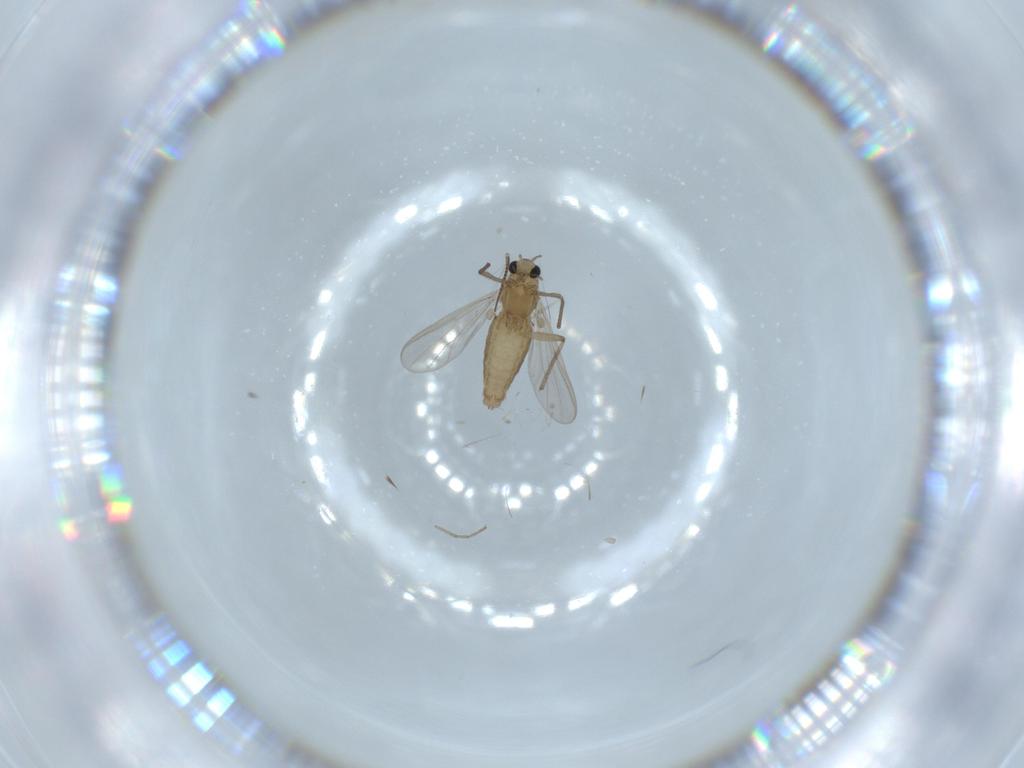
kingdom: Animalia
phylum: Arthropoda
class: Insecta
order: Diptera
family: Chironomidae
